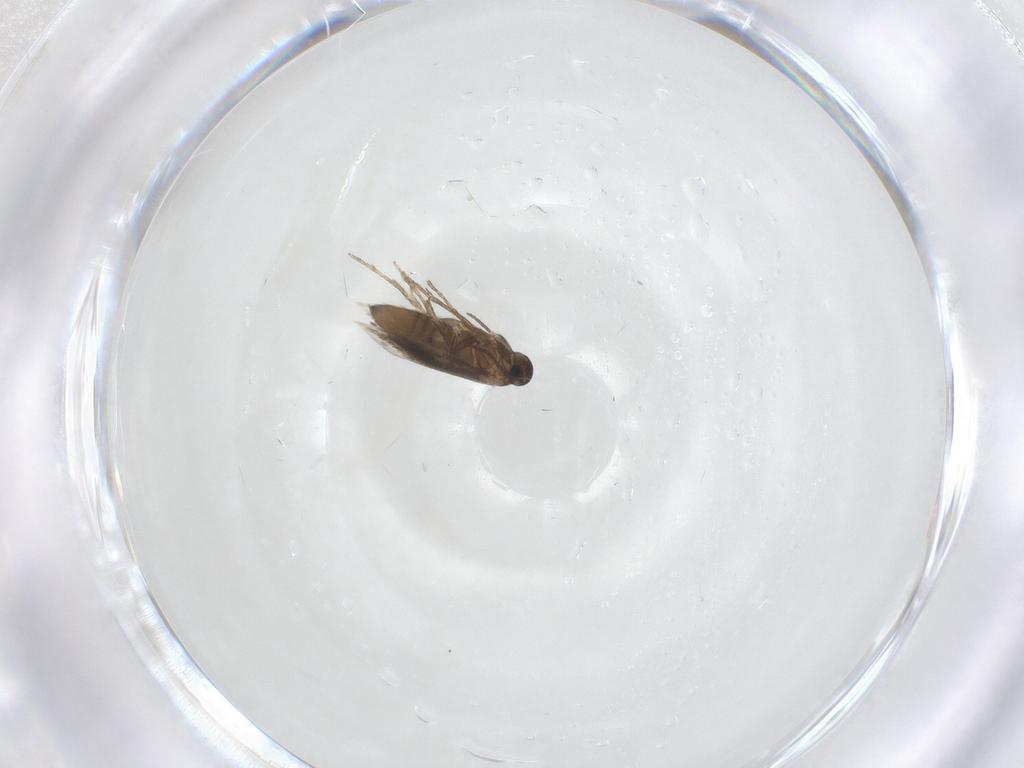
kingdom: Animalia
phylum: Arthropoda
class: Insecta
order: Lepidoptera
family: Heliozelidae
